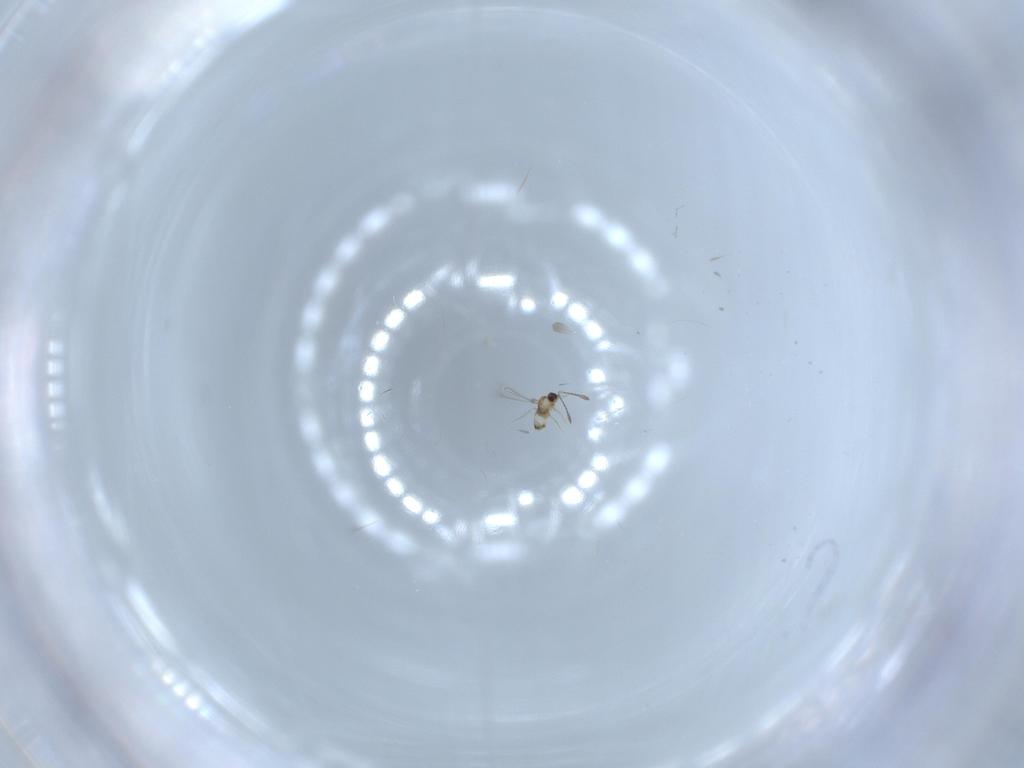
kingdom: Animalia
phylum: Arthropoda
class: Insecta
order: Hymenoptera
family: Scelionidae
